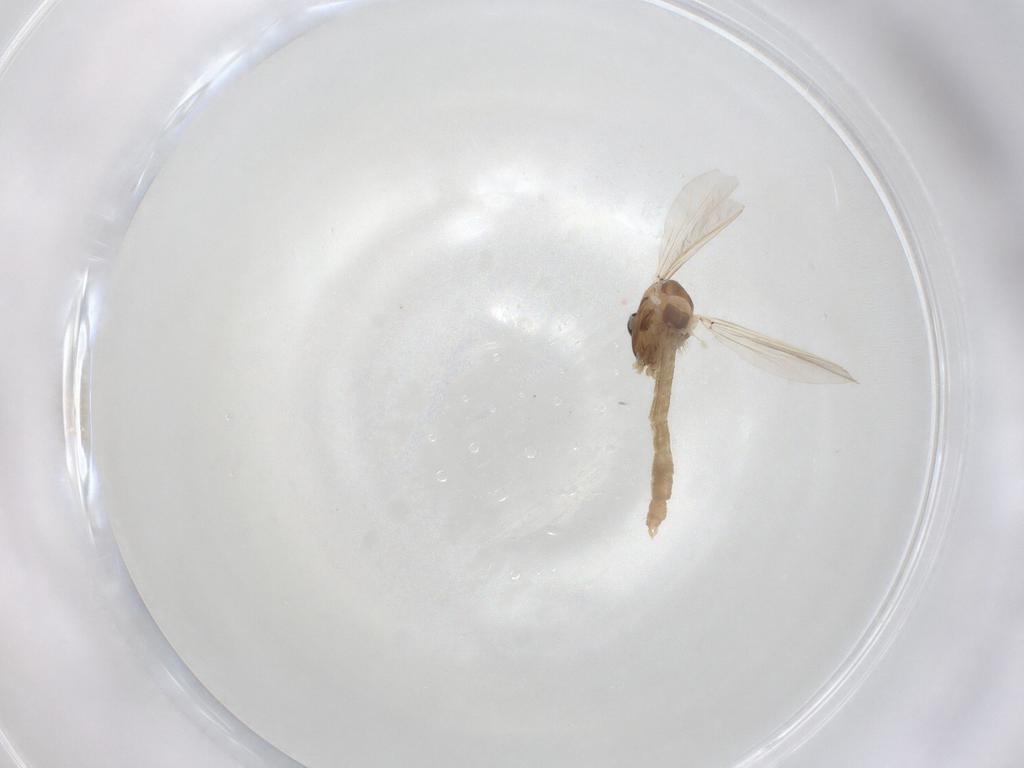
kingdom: Animalia
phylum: Arthropoda
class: Insecta
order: Diptera
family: Chironomidae
